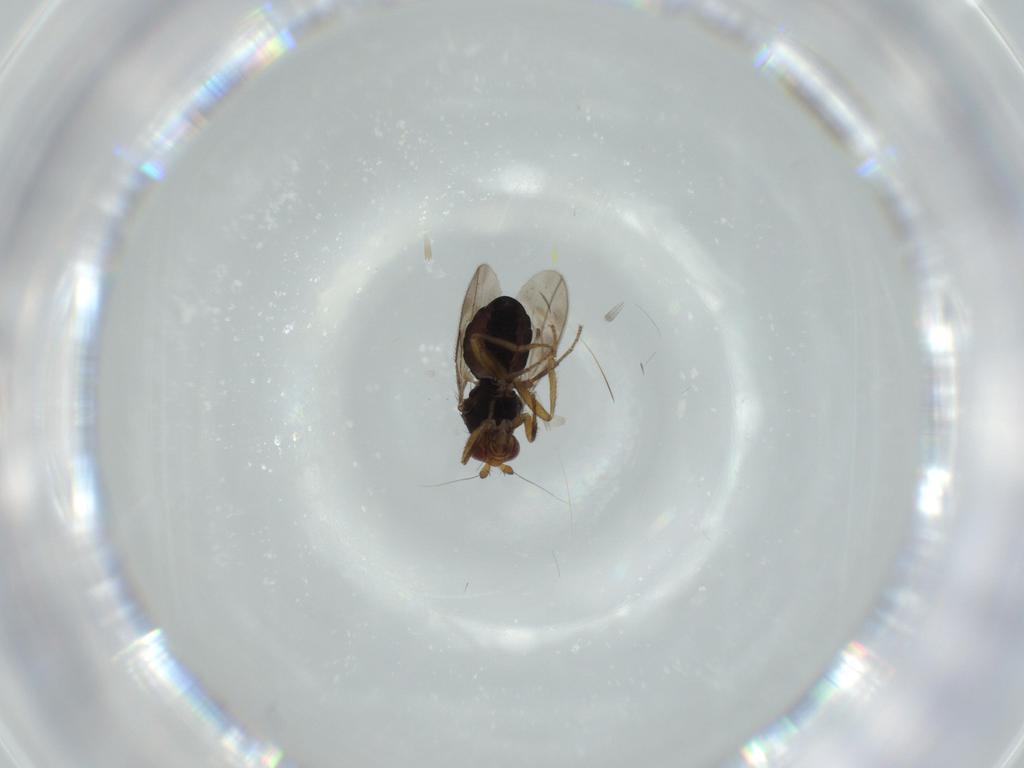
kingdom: Animalia
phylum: Arthropoda
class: Insecta
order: Diptera
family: Sphaeroceridae
